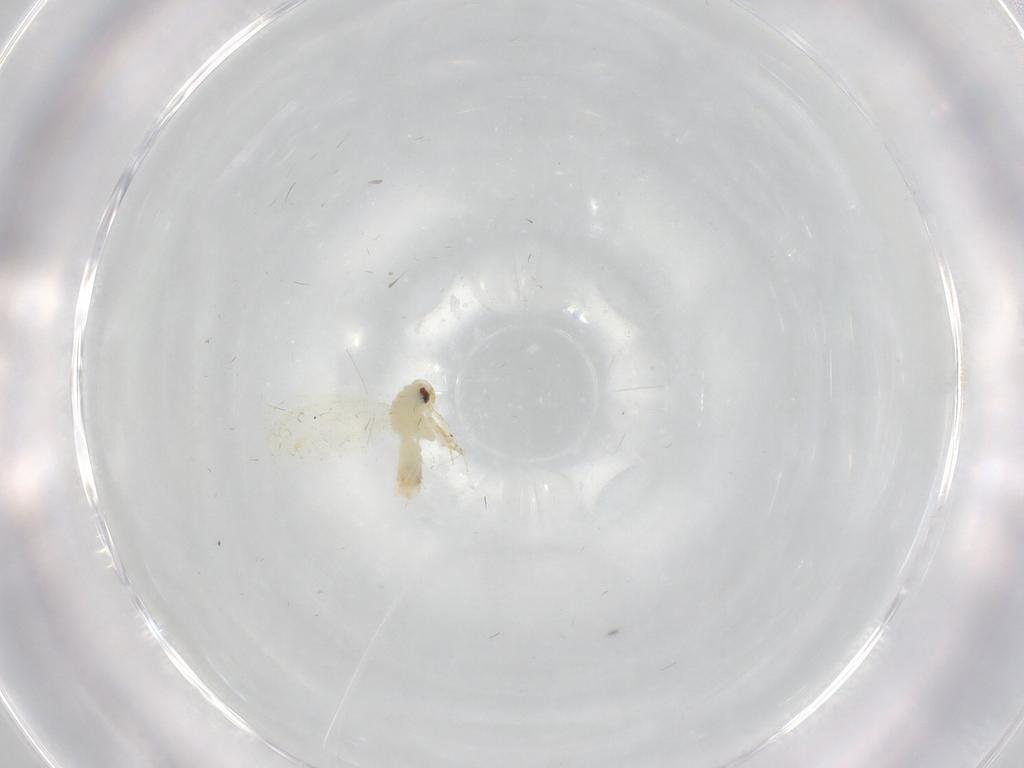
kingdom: Animalia
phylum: Arthropoda
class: Insecta
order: Hemiptera
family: Aleyrodidae
